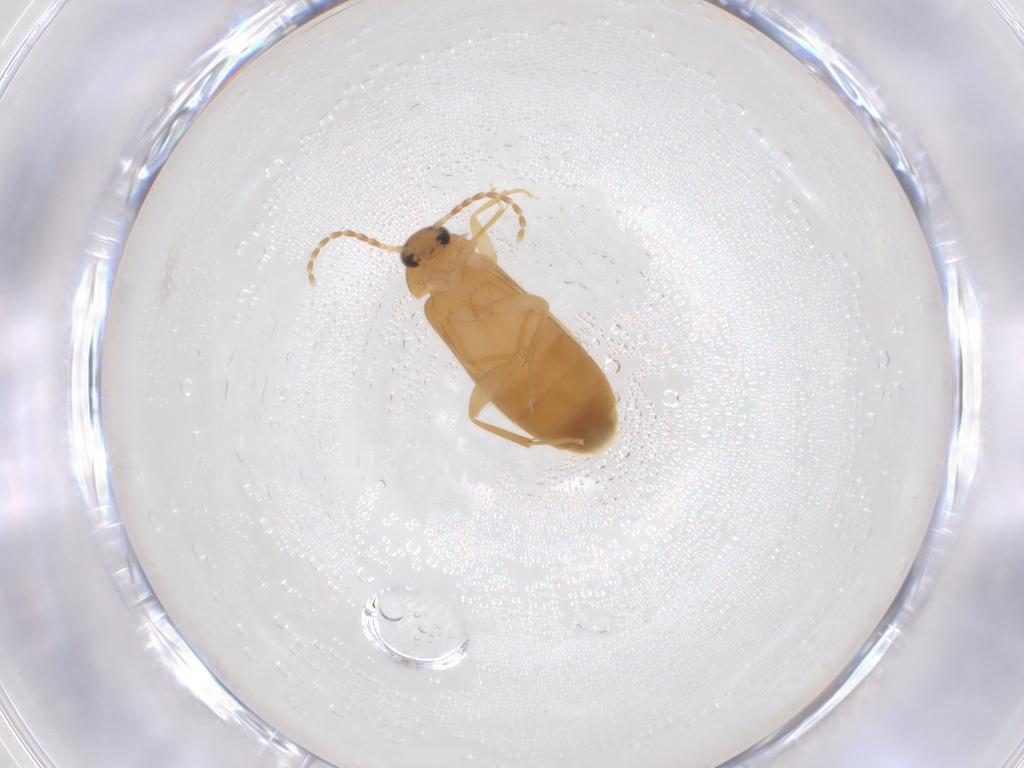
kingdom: Animalia
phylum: Arthropoda
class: Insecta
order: Coleoptera
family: Scraptiidae
